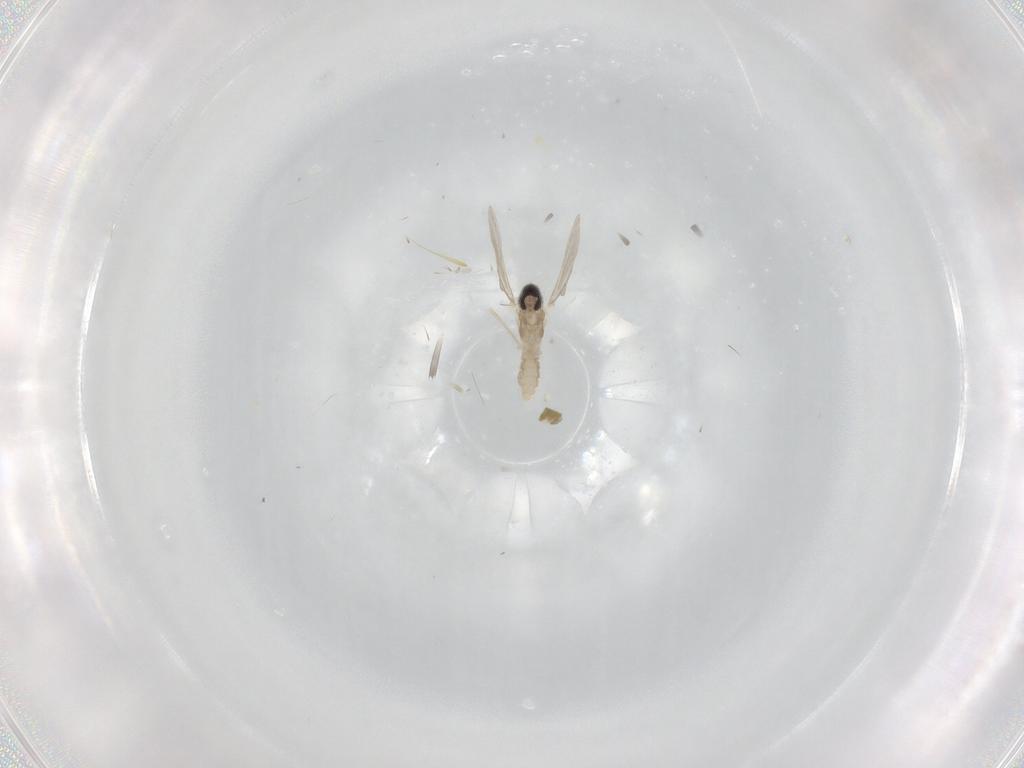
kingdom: Animalia
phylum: Arthropoda
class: Insecta
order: Diptera
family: Cecidomyiidae
